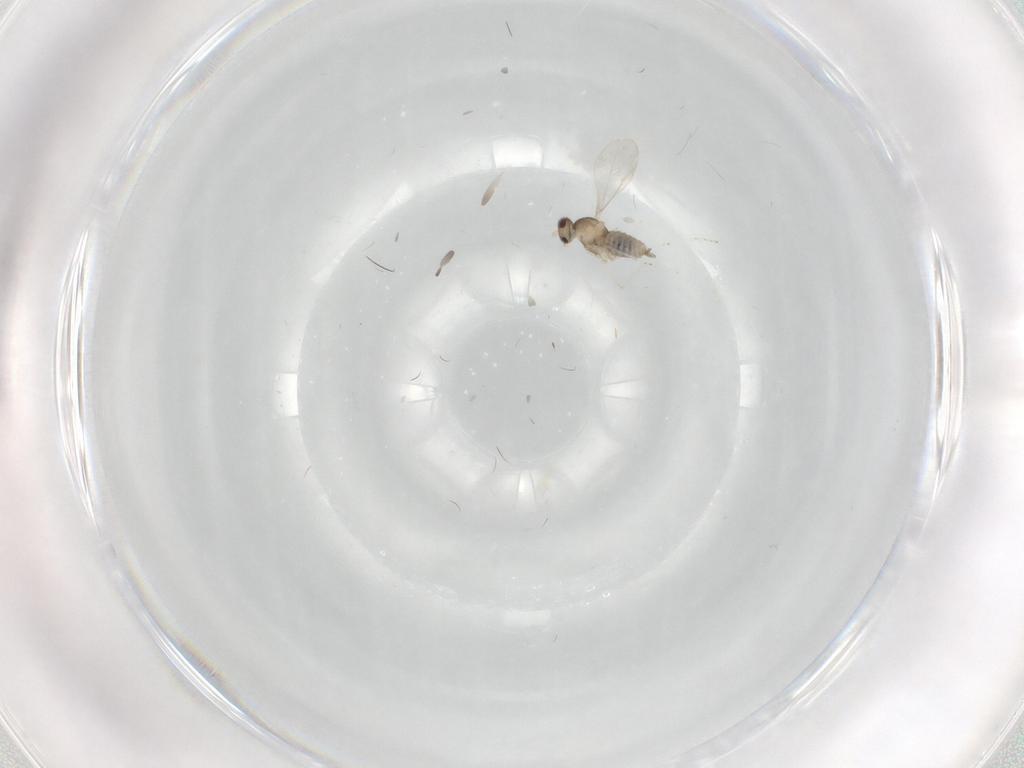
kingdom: Animalia
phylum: Arthropoda
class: Insecta
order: Diptera
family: Cecidomyiidae
